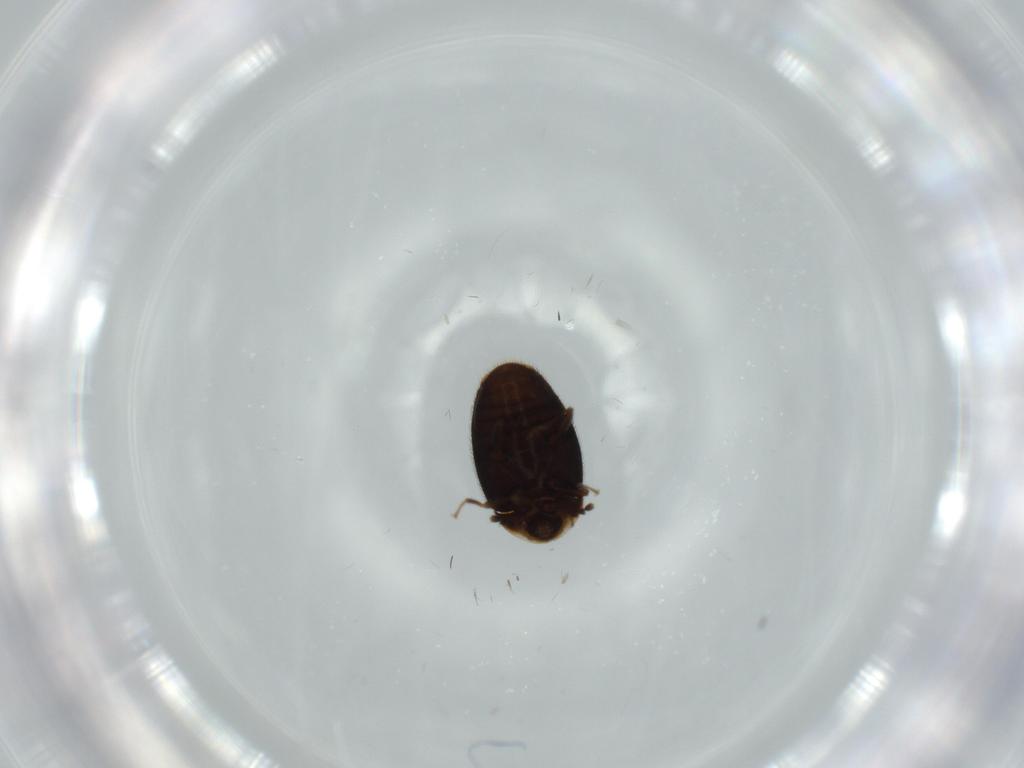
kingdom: Animalia
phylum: Arthropoda
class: Insecta
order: Coleoptera
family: Corylophidae
